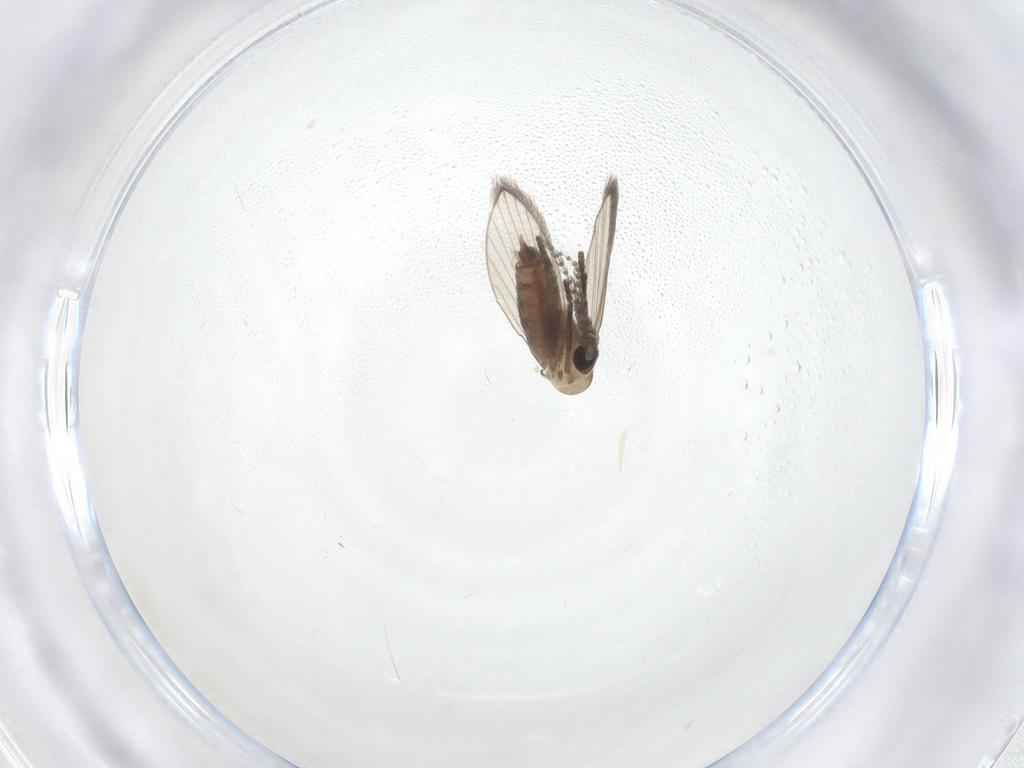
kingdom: Animalia
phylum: Arthropoda
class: Insecta
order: Diptera
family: Psychodidae
